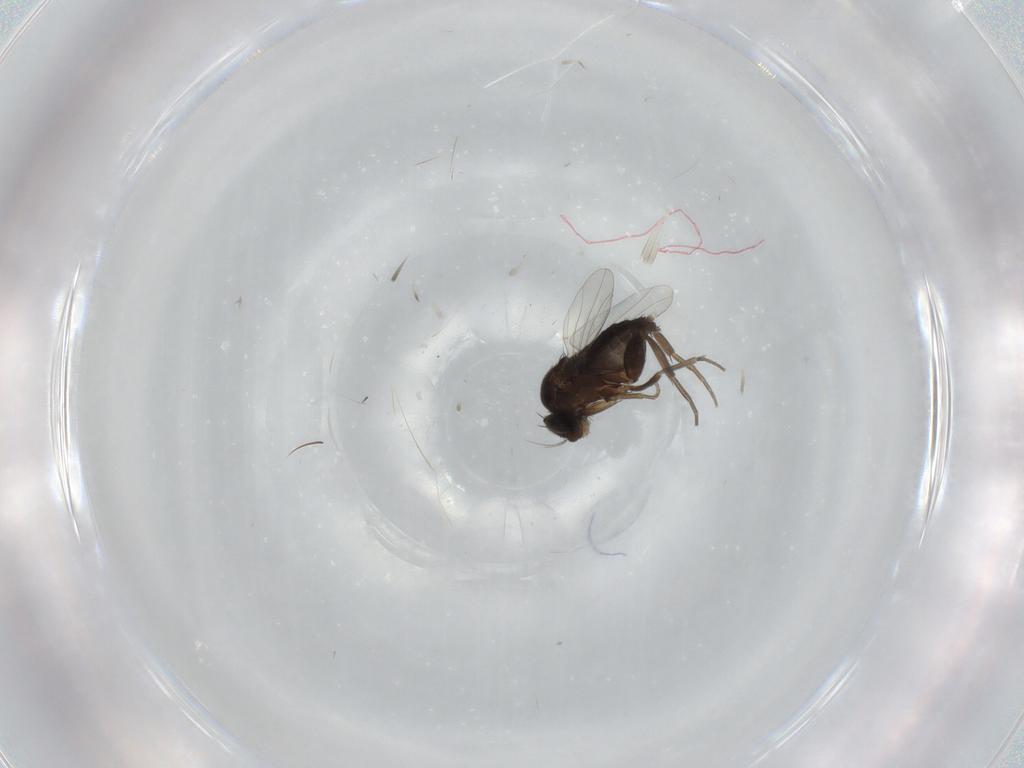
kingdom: Animalia
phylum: Arthropoda
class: Insecta
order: Diptera
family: Phoridae
